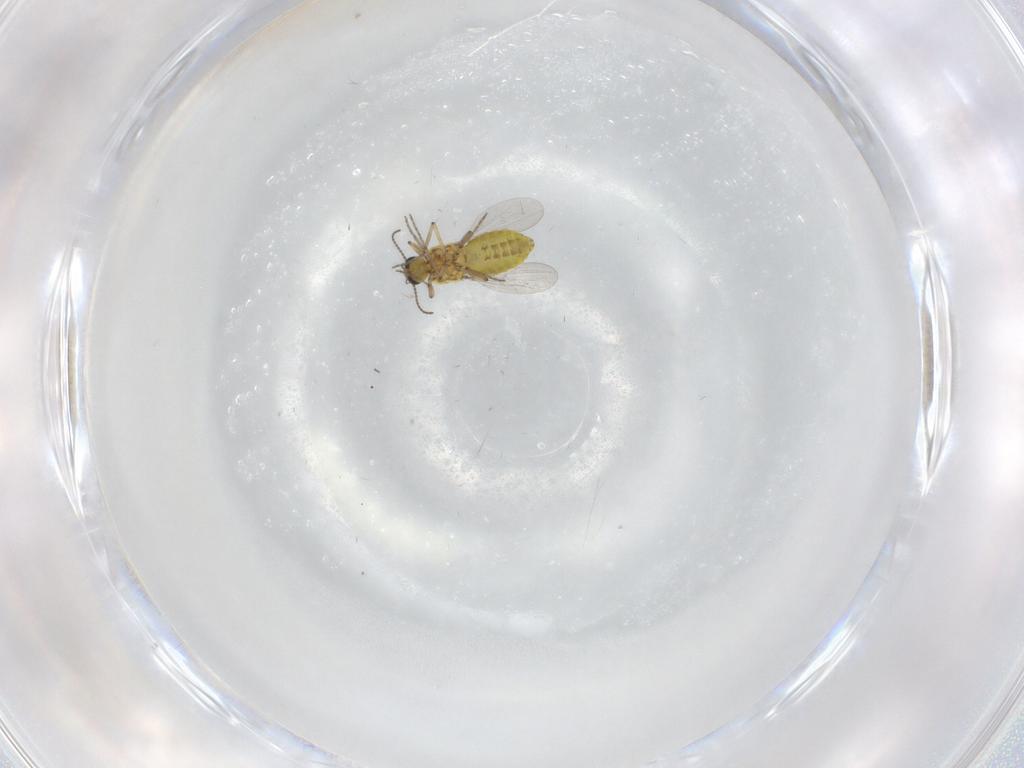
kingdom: Animalia
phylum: Arthropoda
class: Insecta
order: Diptera
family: Ceratopogonidae
